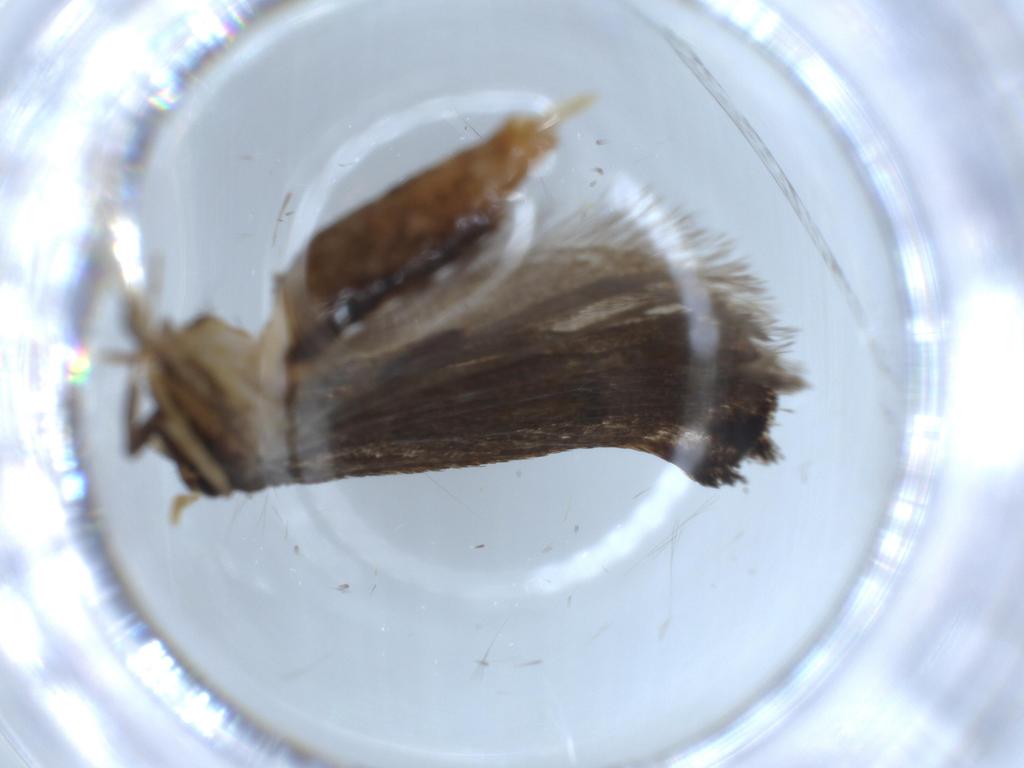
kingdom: Animalia
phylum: Arthropoda
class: Insecta
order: Lepidoptera
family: Lecithoceridae
